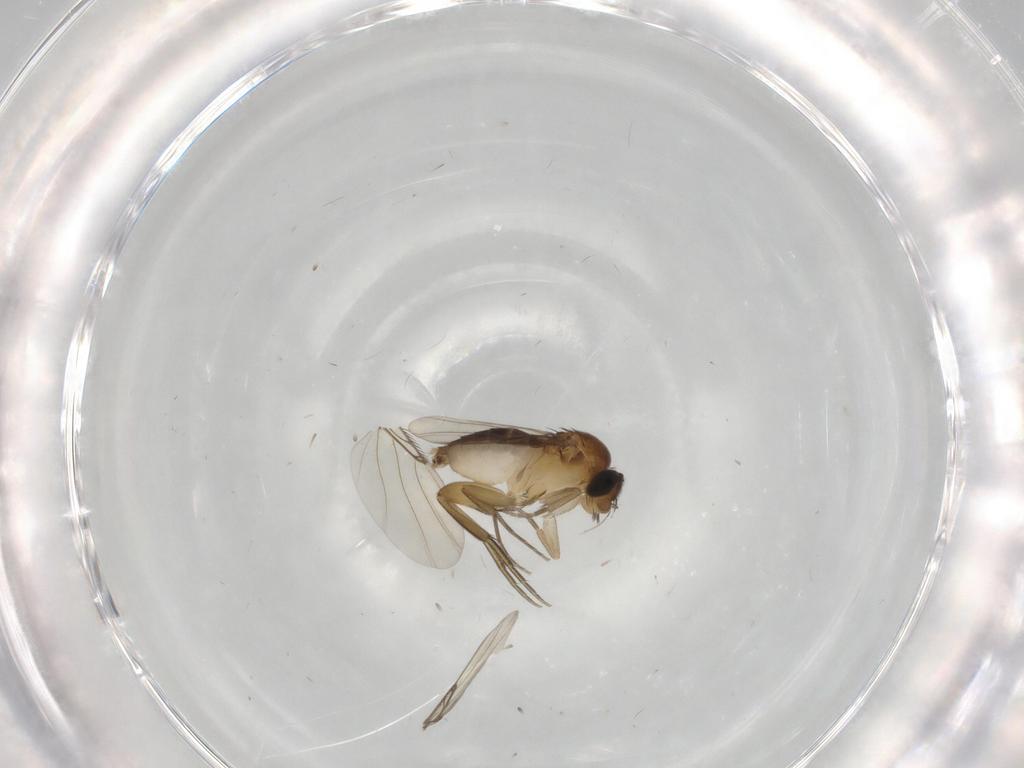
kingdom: Animalia
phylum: Arthropoda
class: Insecta
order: Diptera
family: Phoridae
